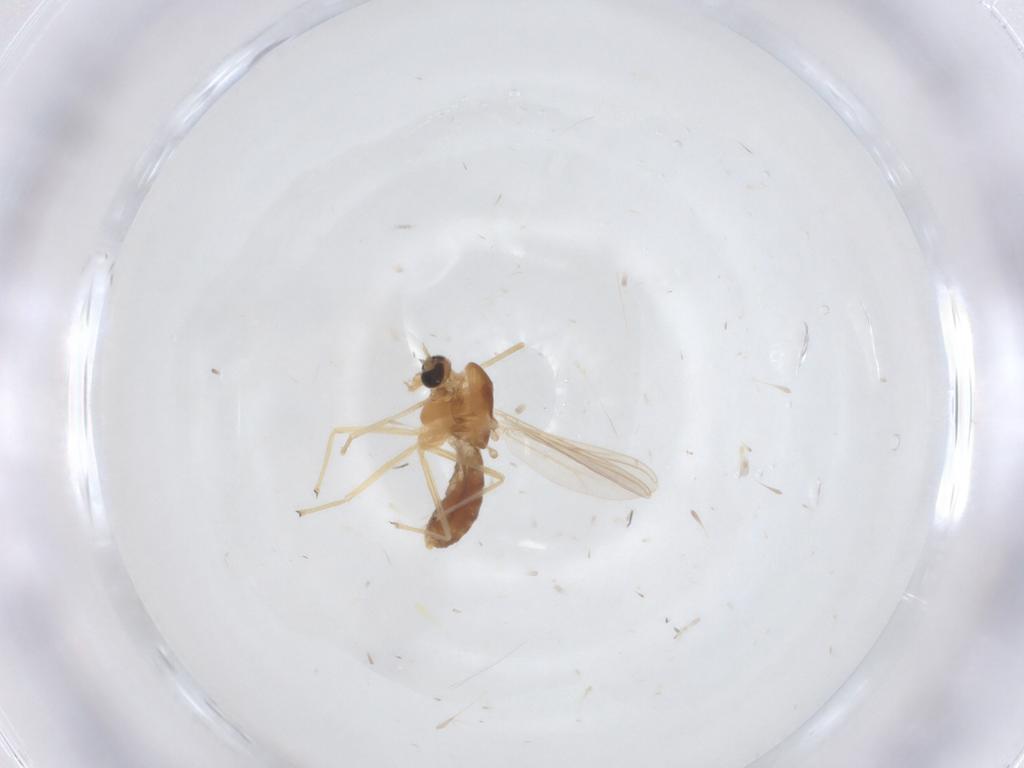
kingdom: Animalia
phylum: Arthropoda
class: Insecta
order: Diptera
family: Chironomidae
